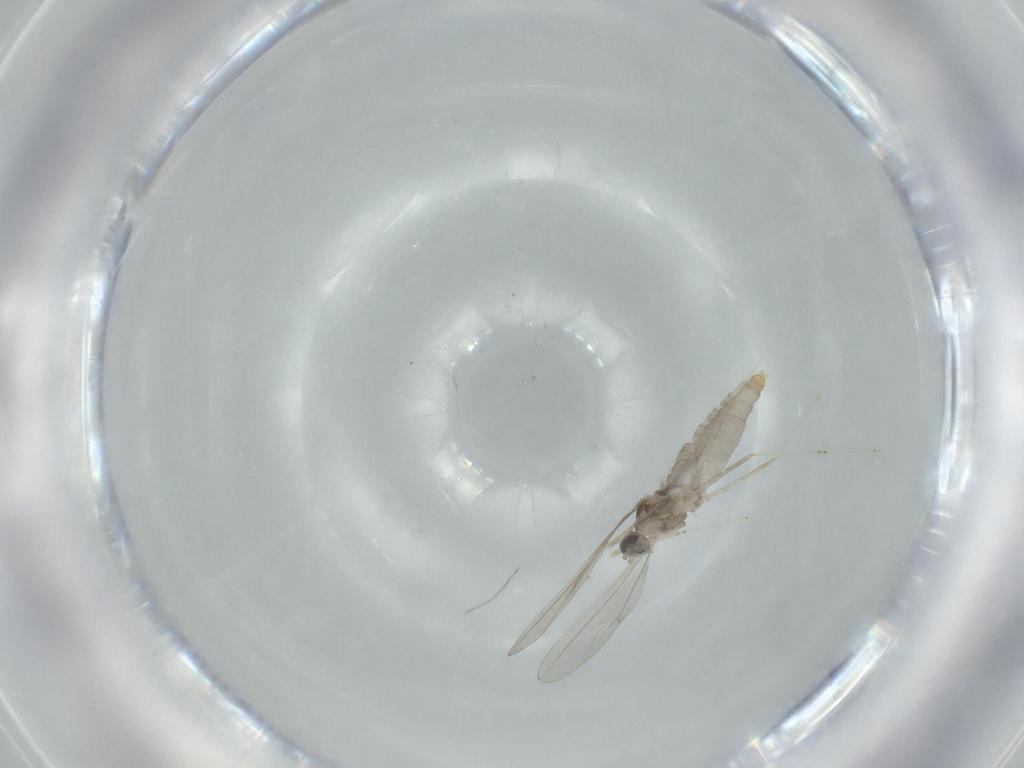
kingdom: Animalia
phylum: Arthropoda
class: Insecta
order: Diptera
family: Cecidomyiidae
